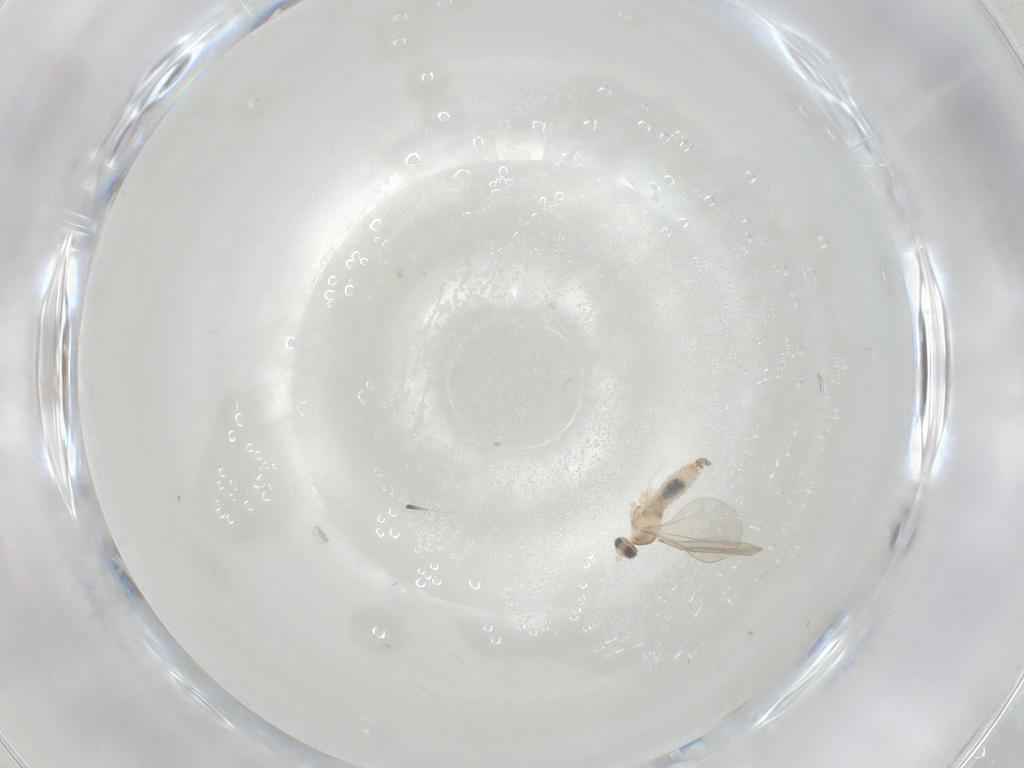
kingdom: Animalia
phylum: Arthropoda
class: Insecta
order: Diptera
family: Cecidomyiidae
